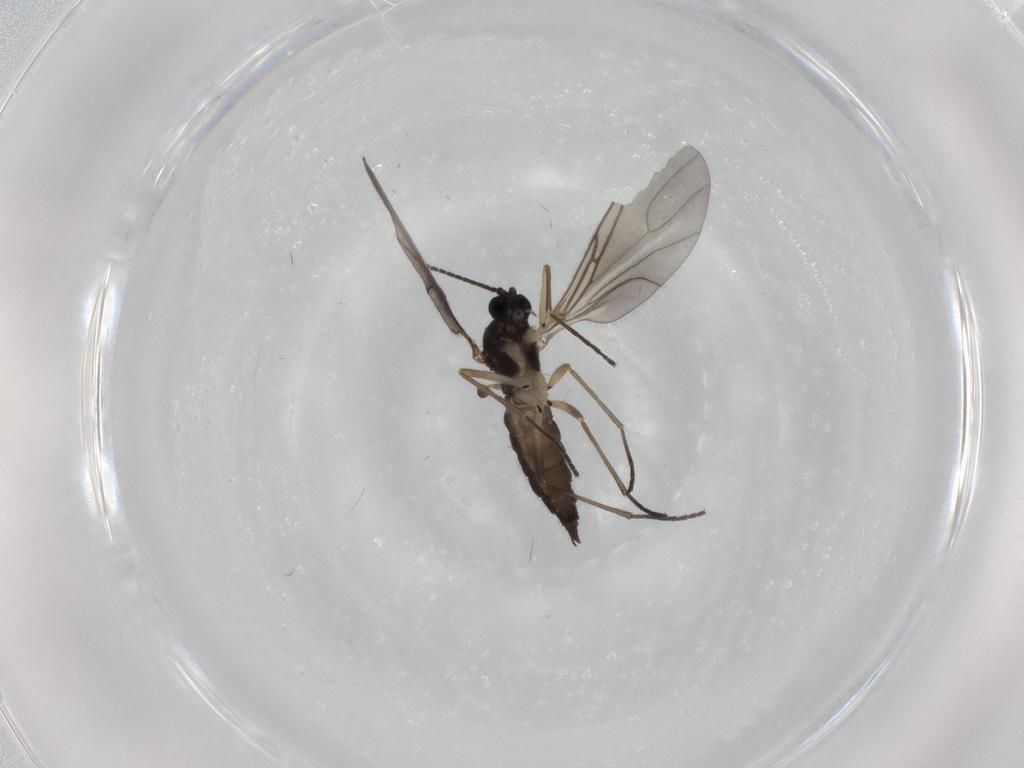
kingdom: Animalia
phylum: Arthropoda
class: Insecta
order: Diptera
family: Sciaridae
